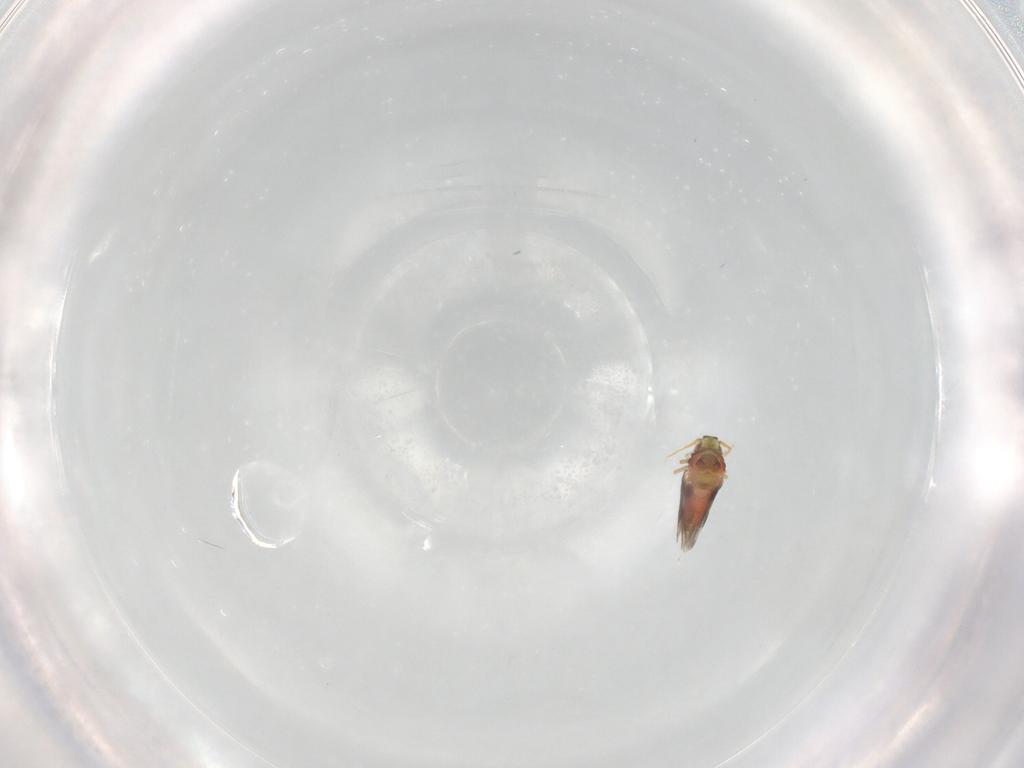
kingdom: Animalia
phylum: Arthropoda
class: Insecta
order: Hemiptera
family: Aleyrodidae
